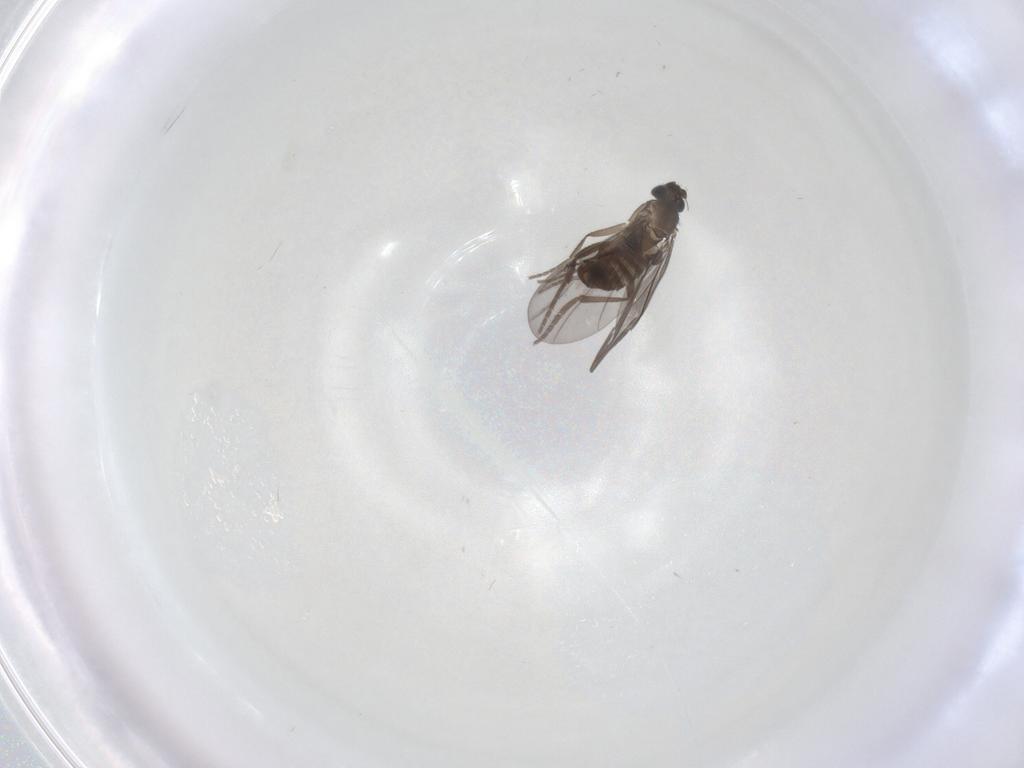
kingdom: Animalia
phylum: Arthropoda
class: Insecta
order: Diptera
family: Phoridae
